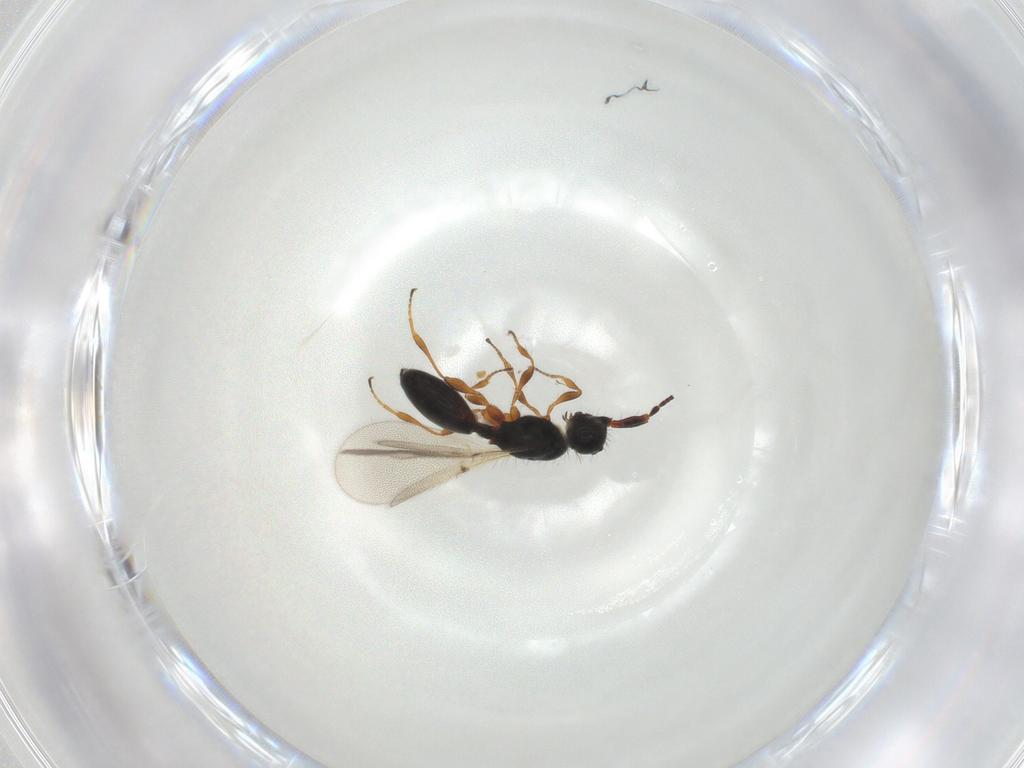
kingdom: Animalia
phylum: Arthropoda
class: Insecta
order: Hymenoptera
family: Diapriidae
